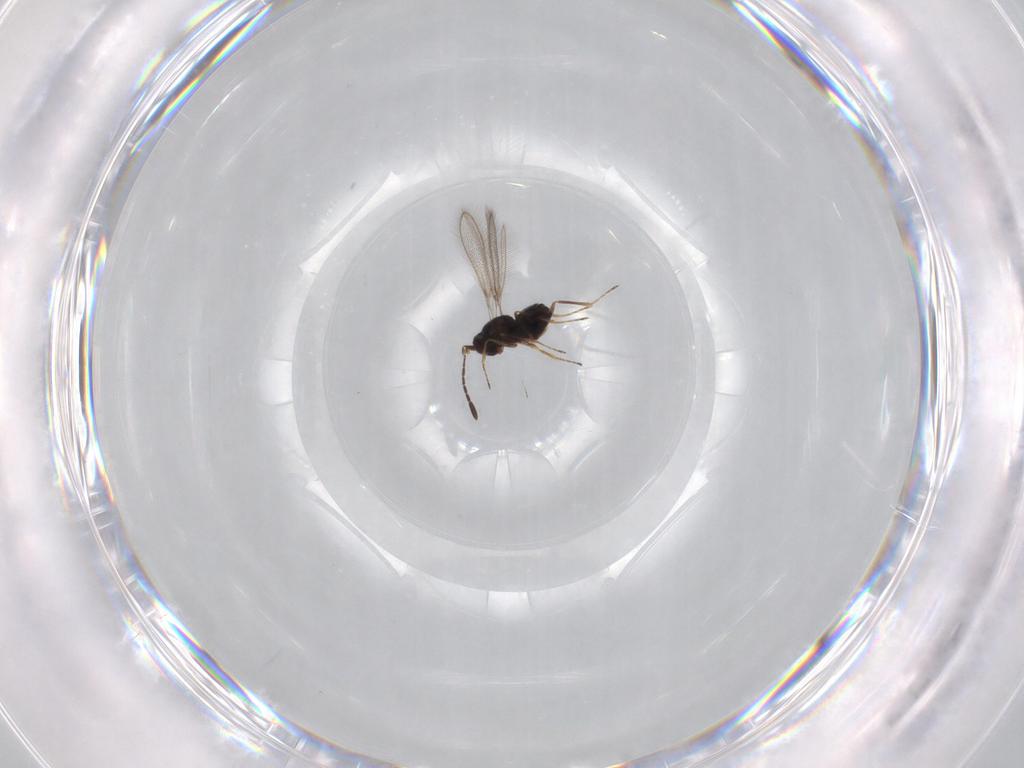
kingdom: Animalia
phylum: Arthropoda
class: Insecta
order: Hymenoptera
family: Mymaridae
